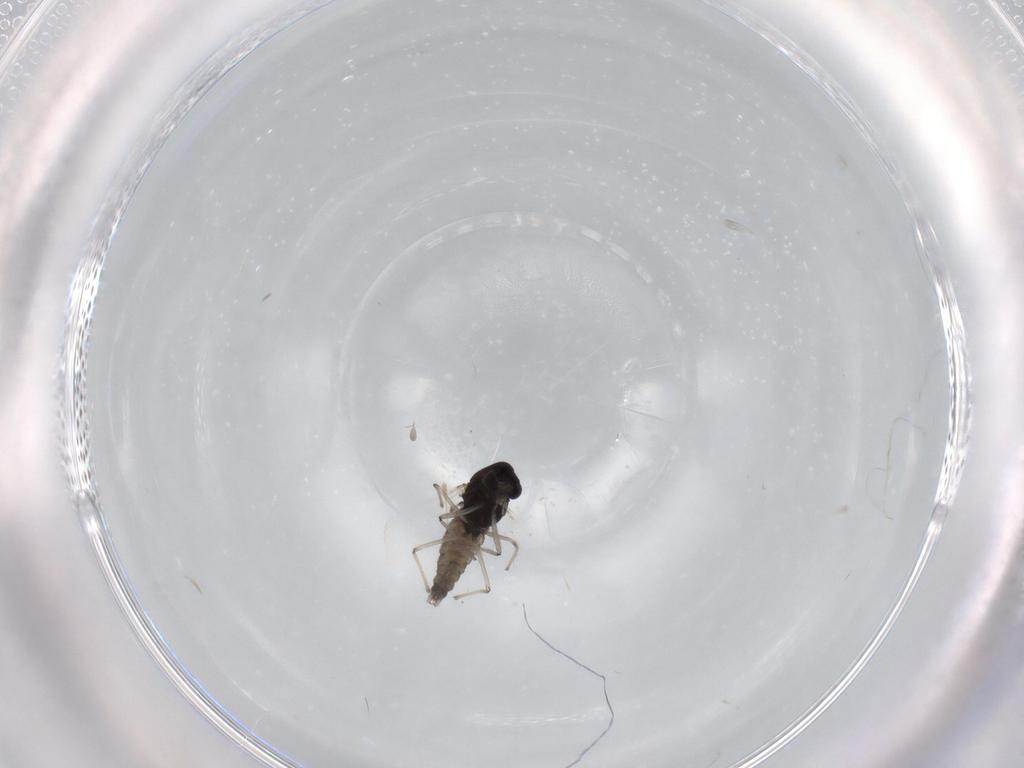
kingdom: Animalia
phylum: Arthropoda
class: Insecta
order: Diptera
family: Chironomidae
